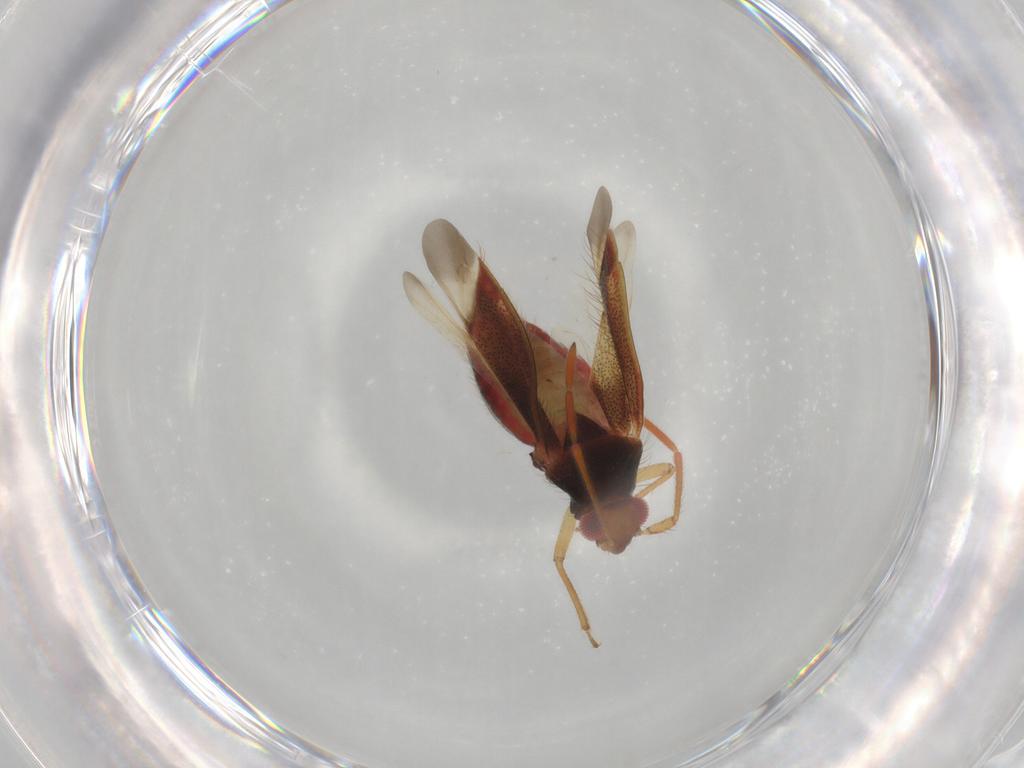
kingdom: Animalia
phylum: Arthropoda
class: Insecta
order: Hemiptera
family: Miridae
